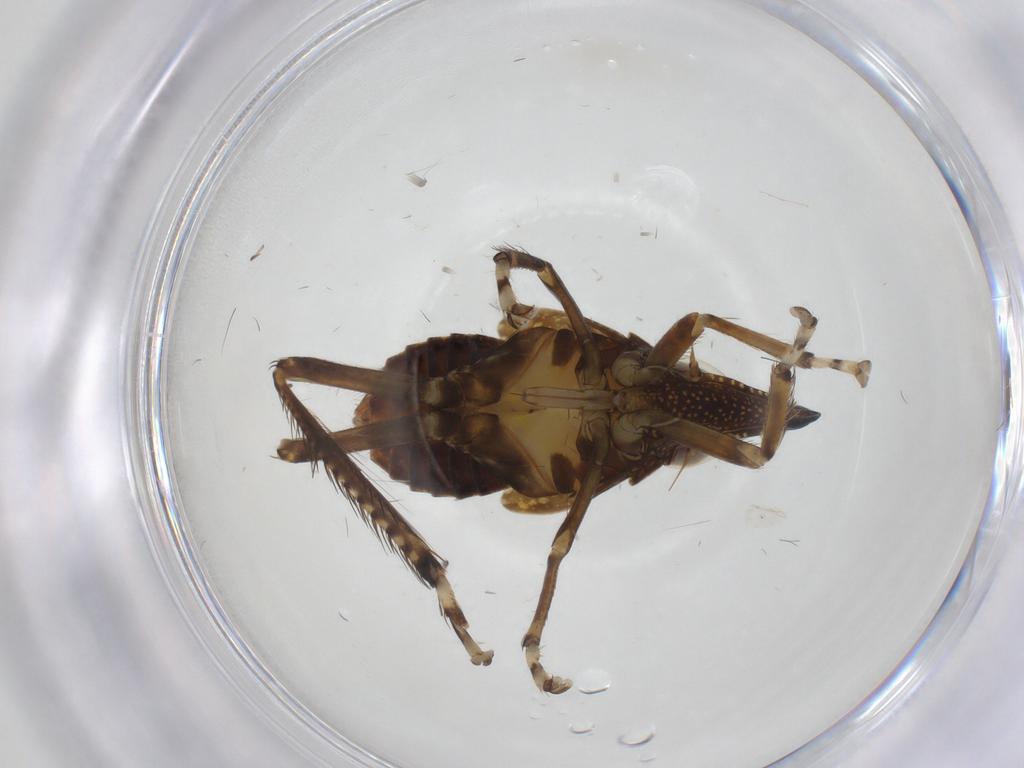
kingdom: Animalia
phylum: Arthropoda
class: Insecta
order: Hemiptera
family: Cicadellidae
